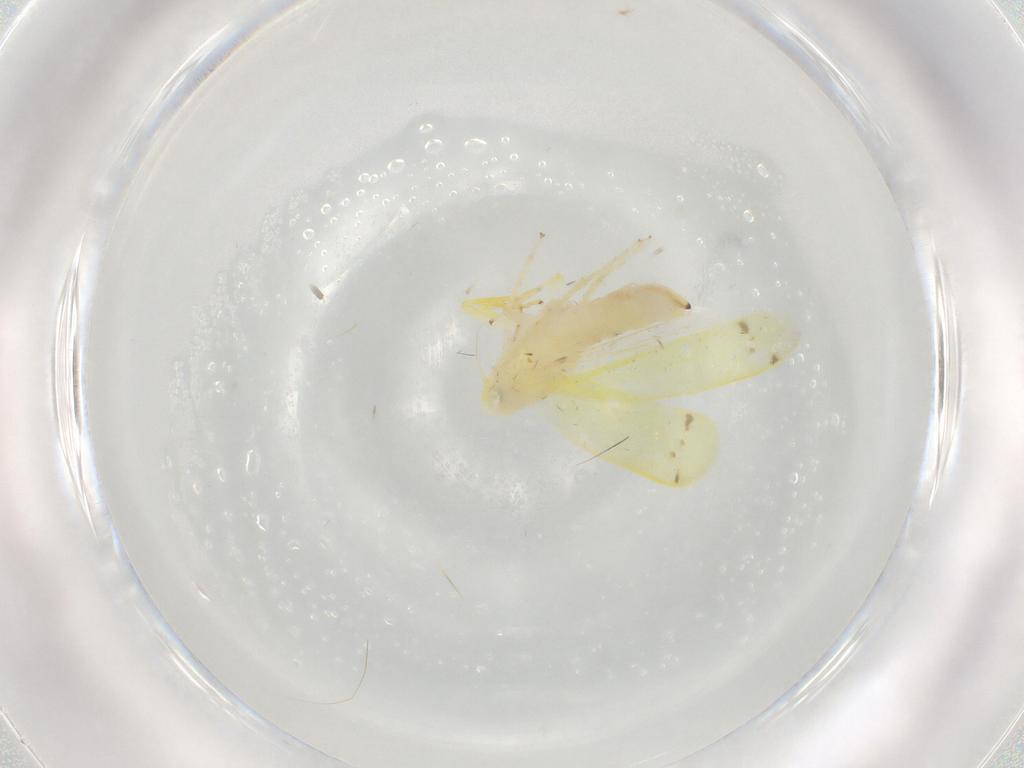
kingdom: Animalia
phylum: Arthropoda
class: Insecta
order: Hemiptera
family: Cicadellidae
